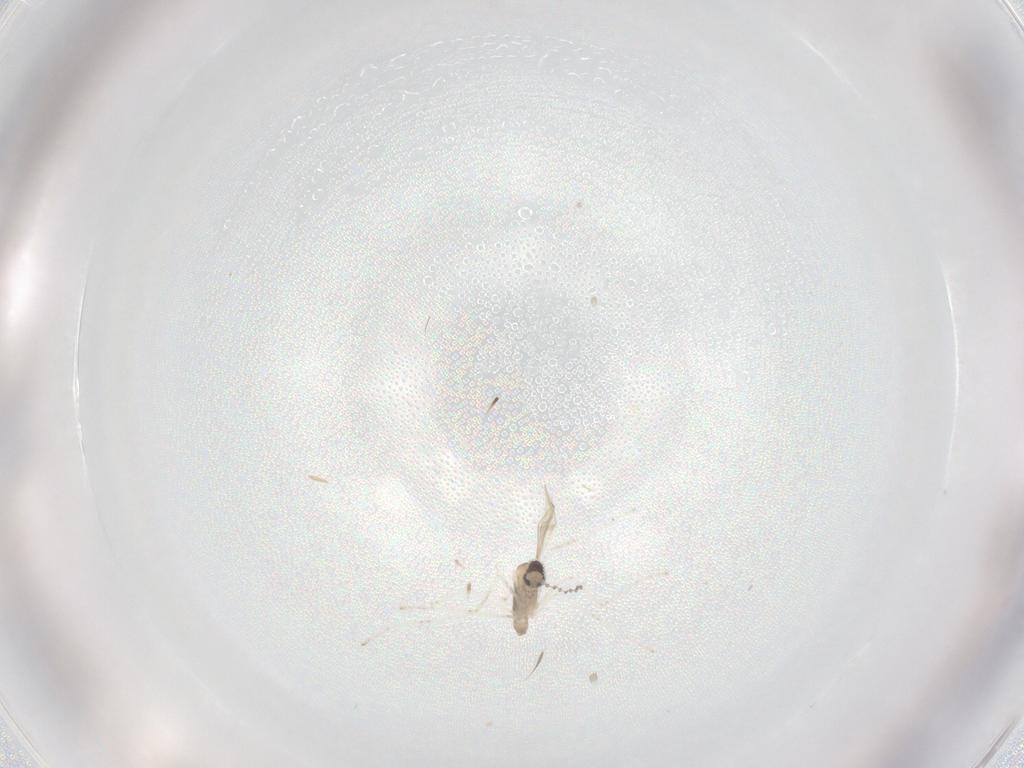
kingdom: Animalia
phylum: Arthropoda
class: Insecta
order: Diptera
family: Cecidomyiidae
